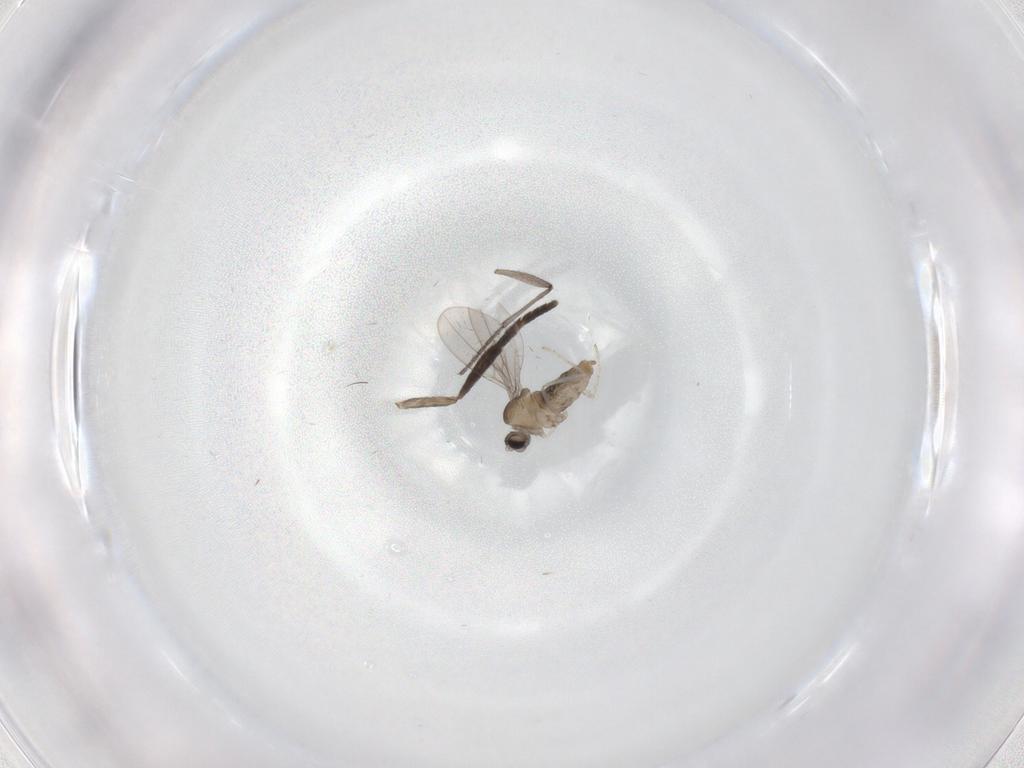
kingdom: Animalia
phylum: Arthropoda
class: Insecta
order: Diptera
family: Cecidomyiidae
